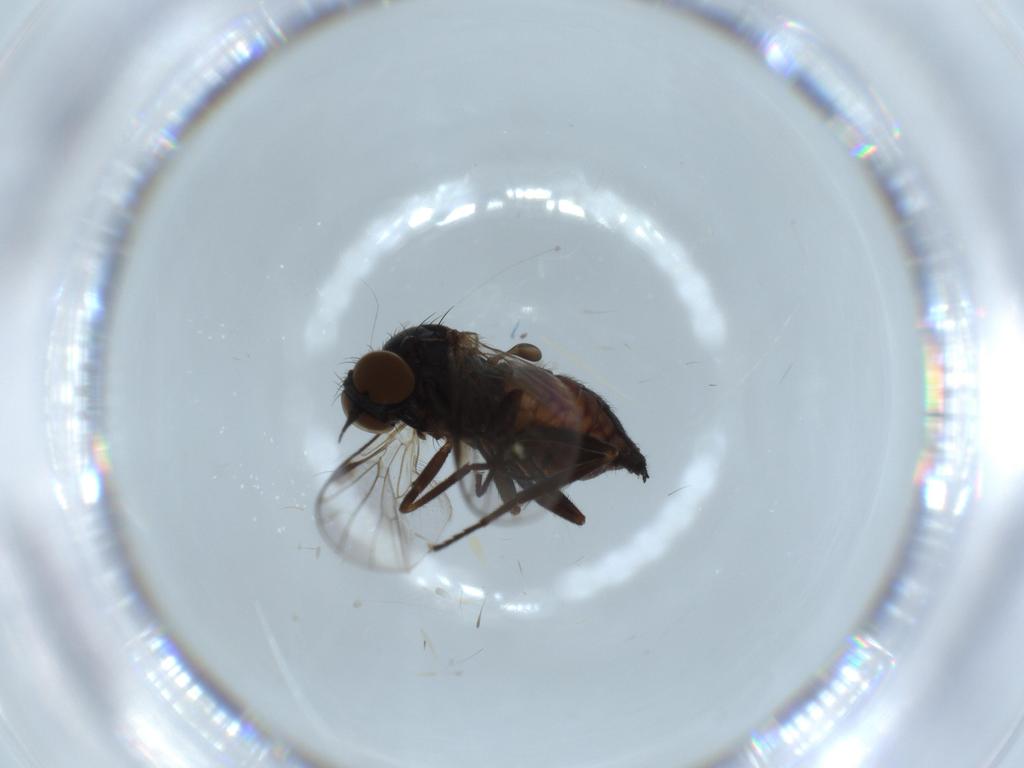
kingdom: Animalia
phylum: Arthropoda
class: Insecta
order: Diptera
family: Empididae
